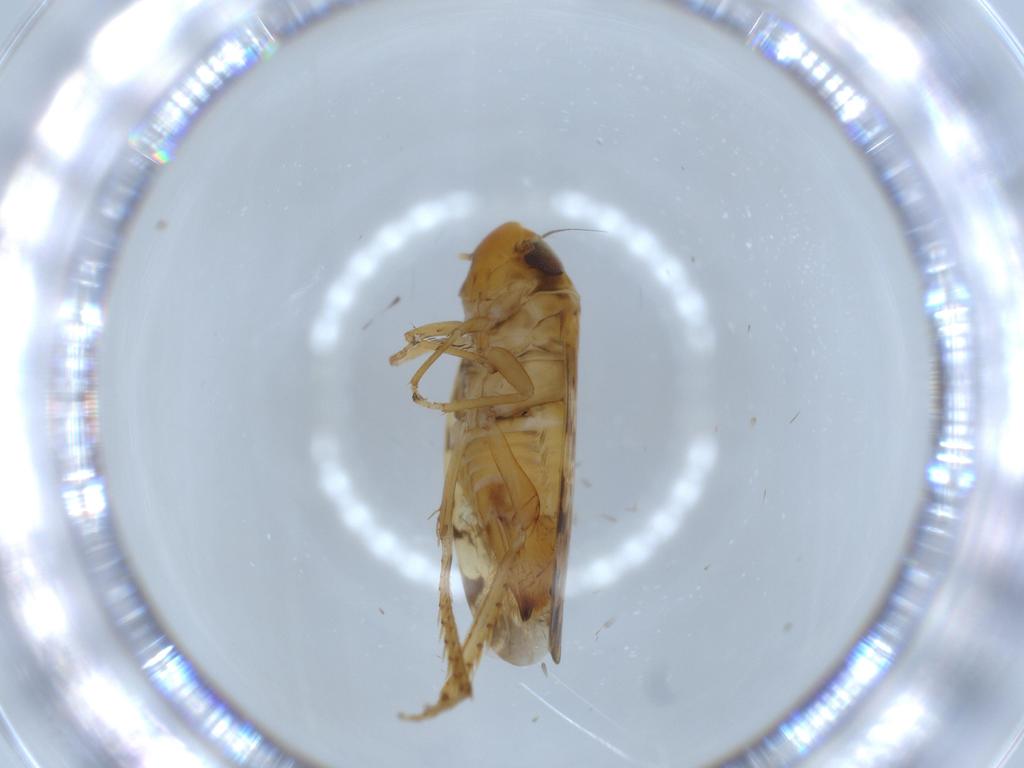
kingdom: Animalia
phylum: Arthropoda
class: Insecta
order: Hemiptera
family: Cicadellidae
